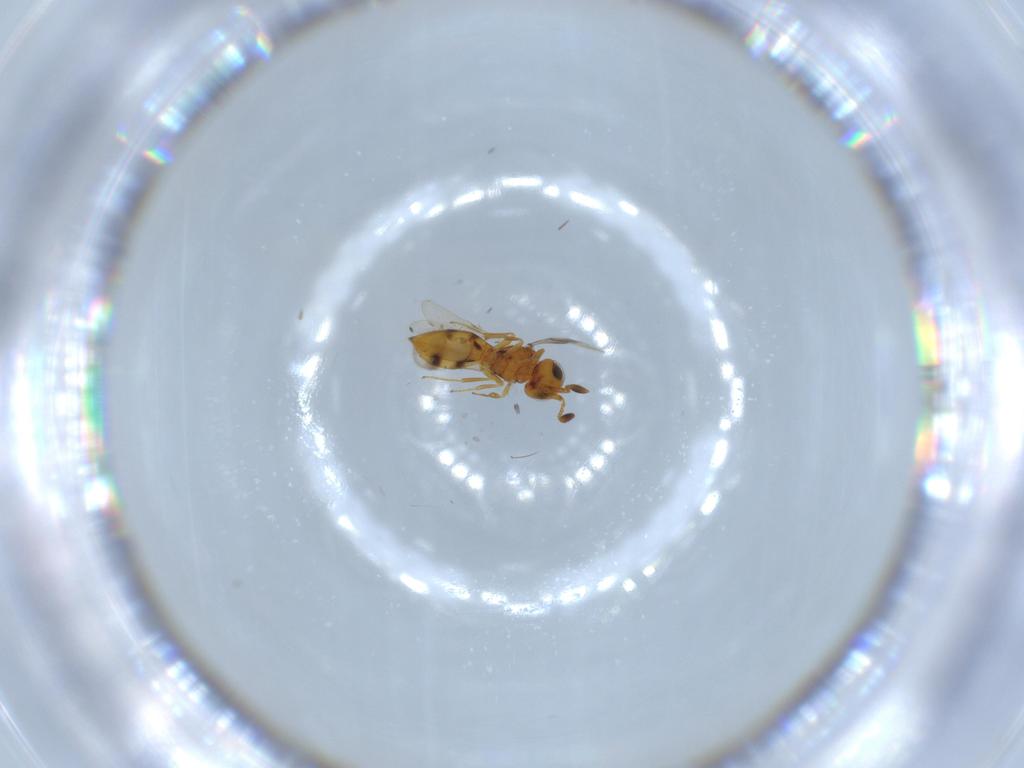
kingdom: Animalia
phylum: Arthropoda
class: Insecta
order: Hymenoptera
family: Scelionidae
